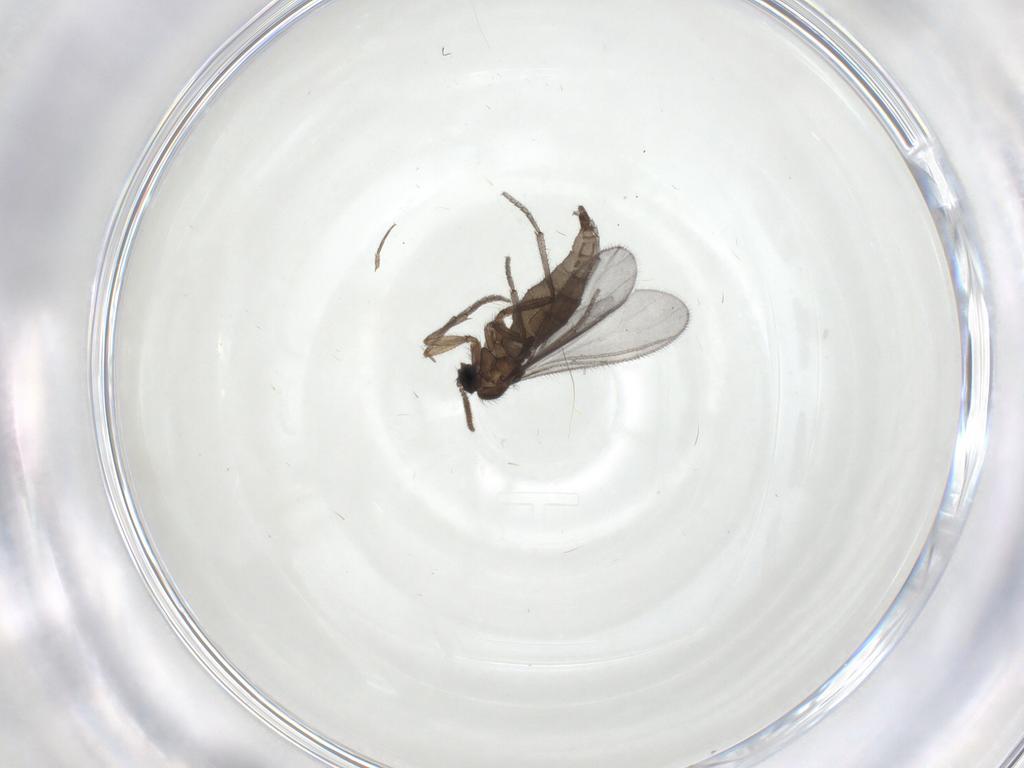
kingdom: Animalia
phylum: Arthropoda
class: Insecta
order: Diptera
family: Sciaridae
